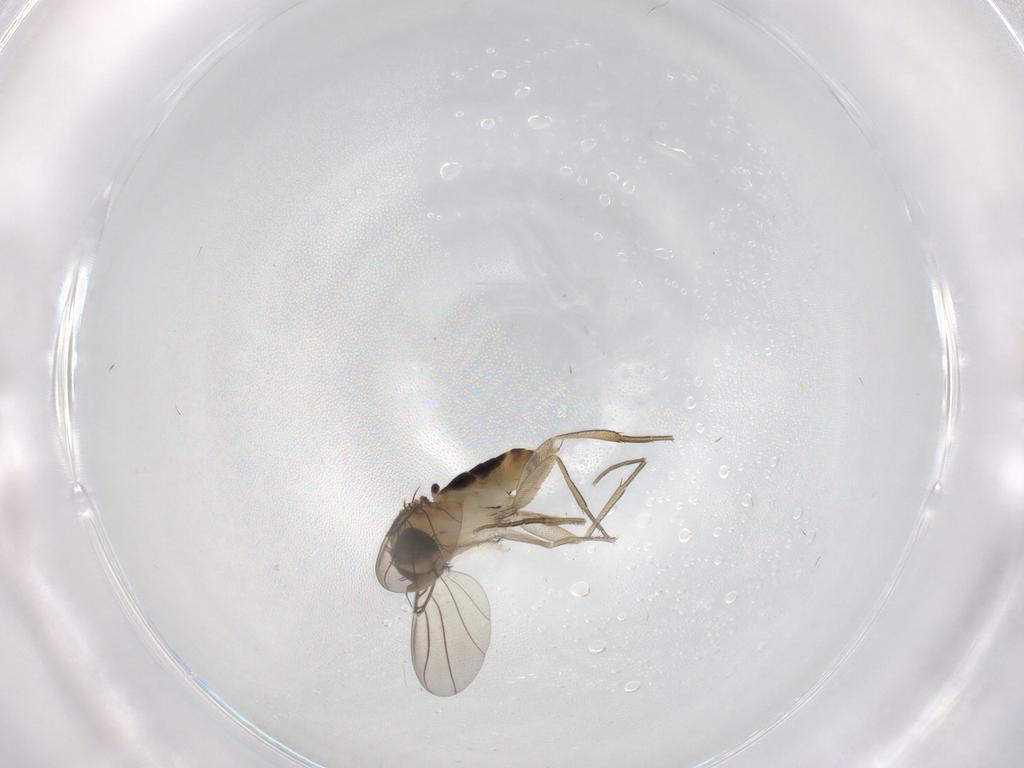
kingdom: Animalia
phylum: Arthropoda
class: Insecta
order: Diptera
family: Phoridae
